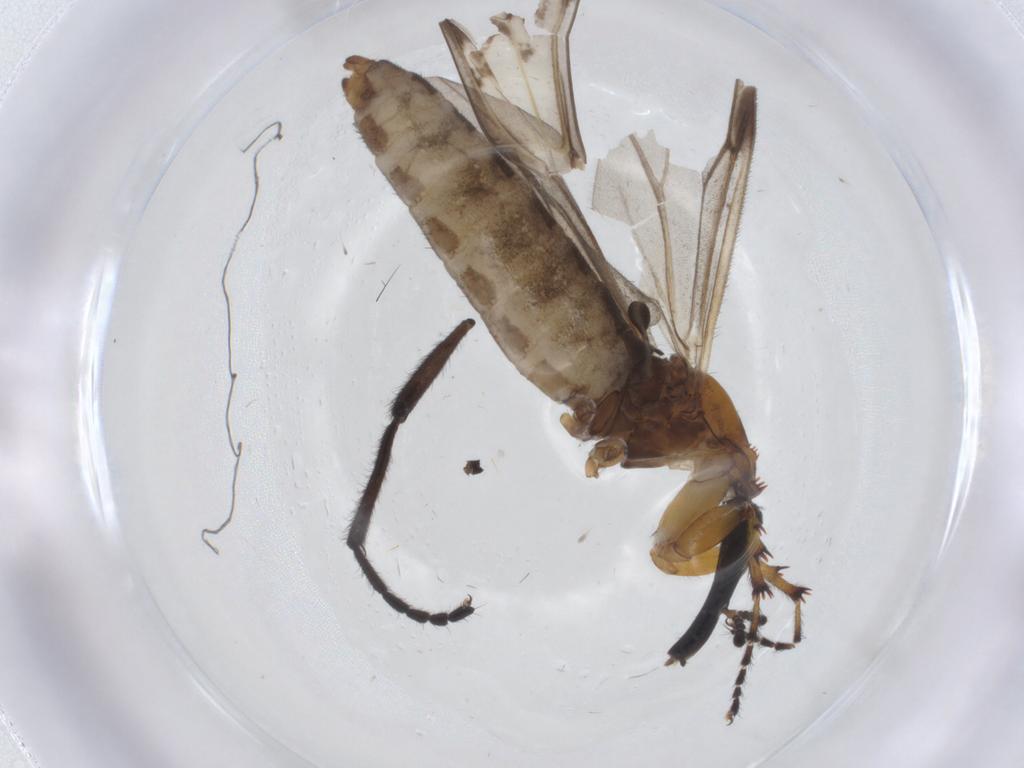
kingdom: Animalia
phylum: Arthropoda
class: Insecta
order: Diptera
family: Bibionidae
